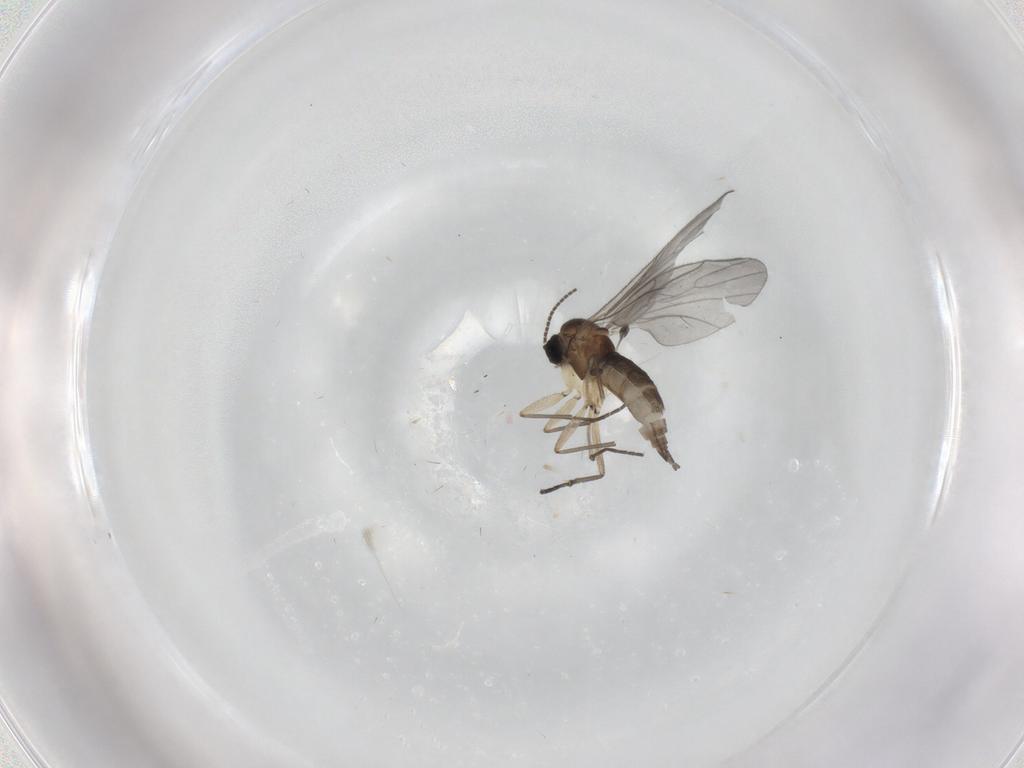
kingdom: Animalia
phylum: Arthropoda
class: Insecta
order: Diptera
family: Sciaridae
